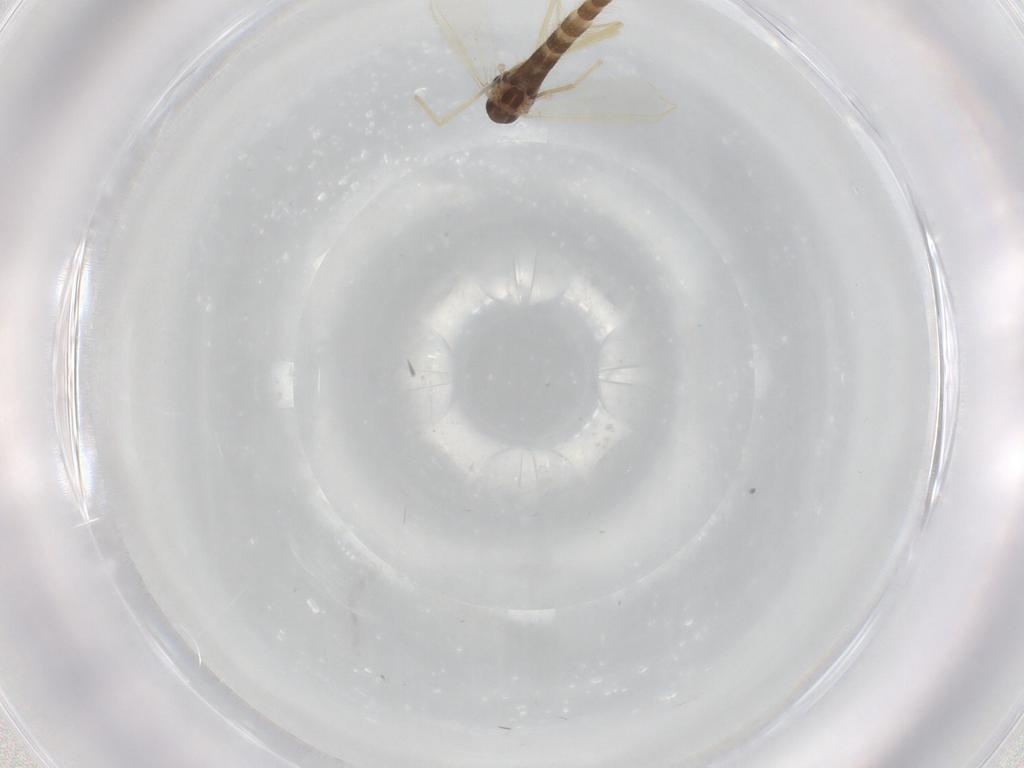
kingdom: Animalia
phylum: Arthropoda
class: Insecta
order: Diptera
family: Chironomidae
